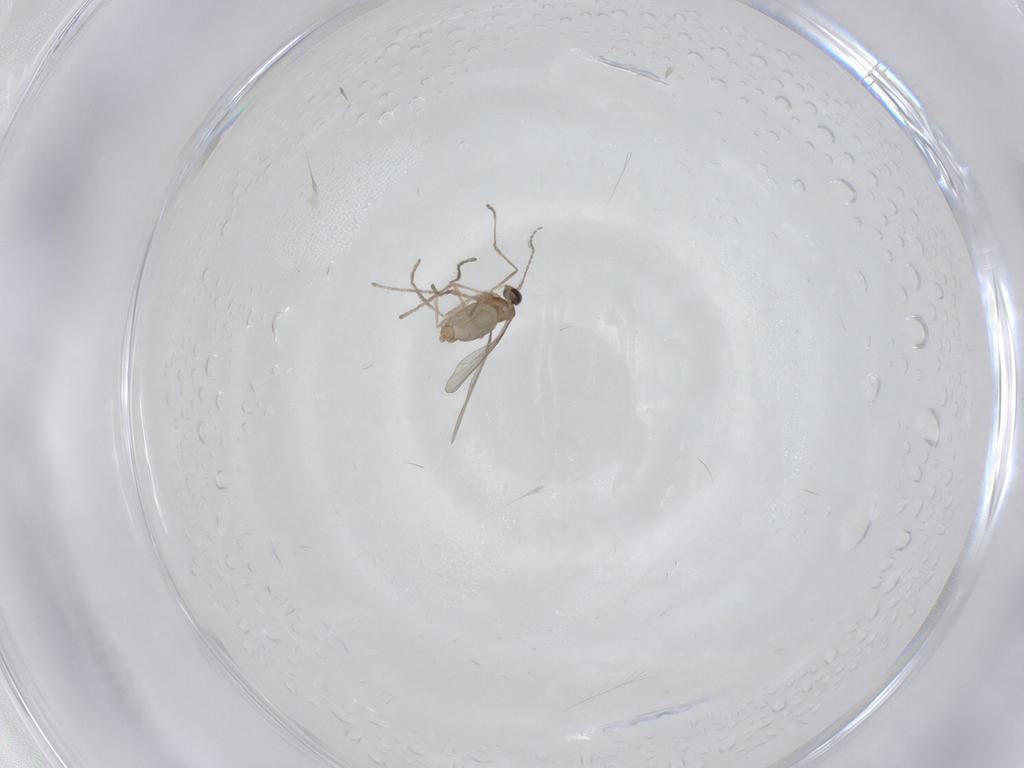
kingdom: Animalia
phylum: Arthropoda
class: Insecta
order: Diptera
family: Cecidomyiidae
